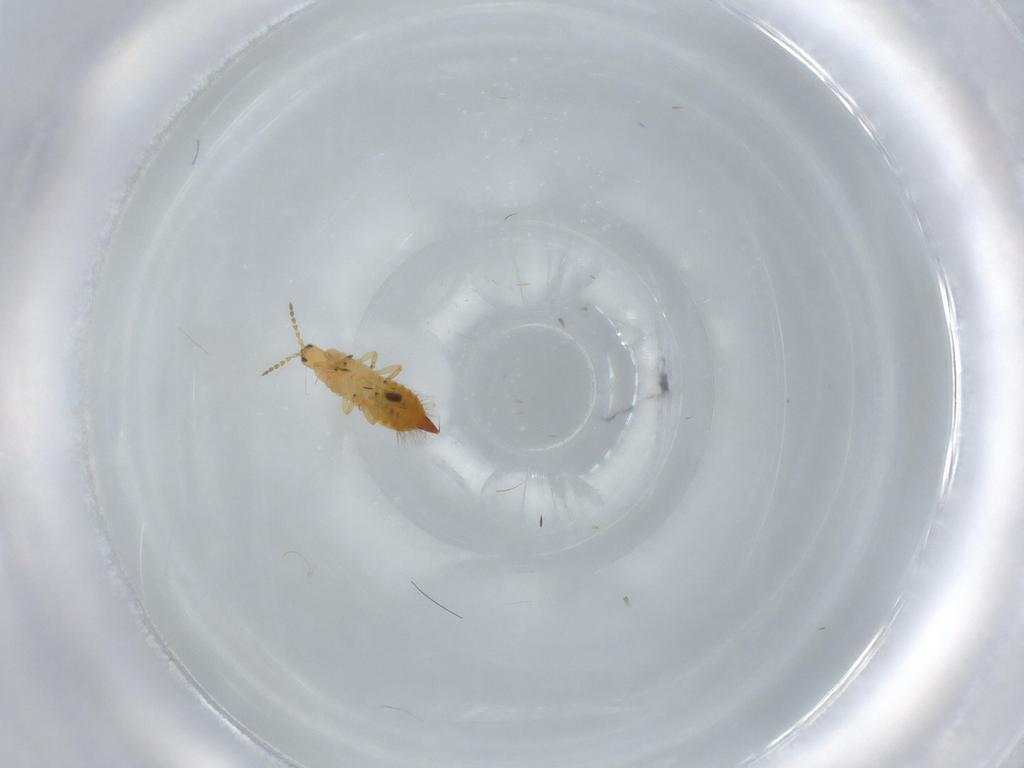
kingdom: Animalia
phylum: Arthropoda
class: Insecta
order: Thysanoptera
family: Phlaeothripidae
